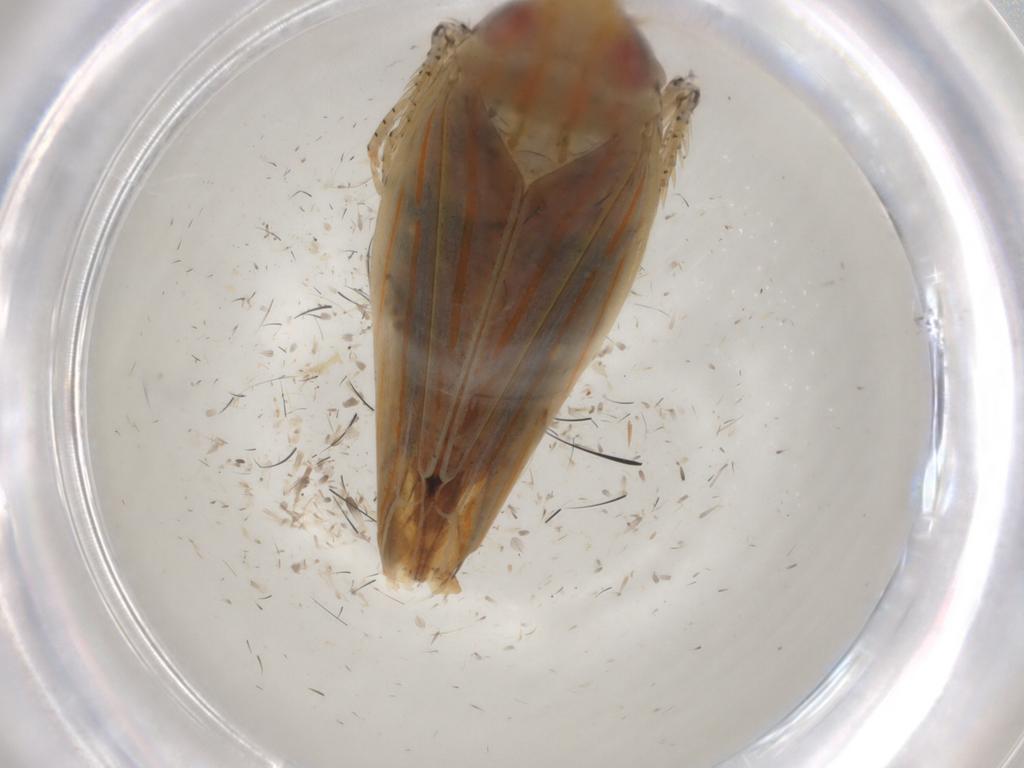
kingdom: Animalia
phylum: Arthropoda
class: Insecta
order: Hemiptera
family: Cicadellidae
